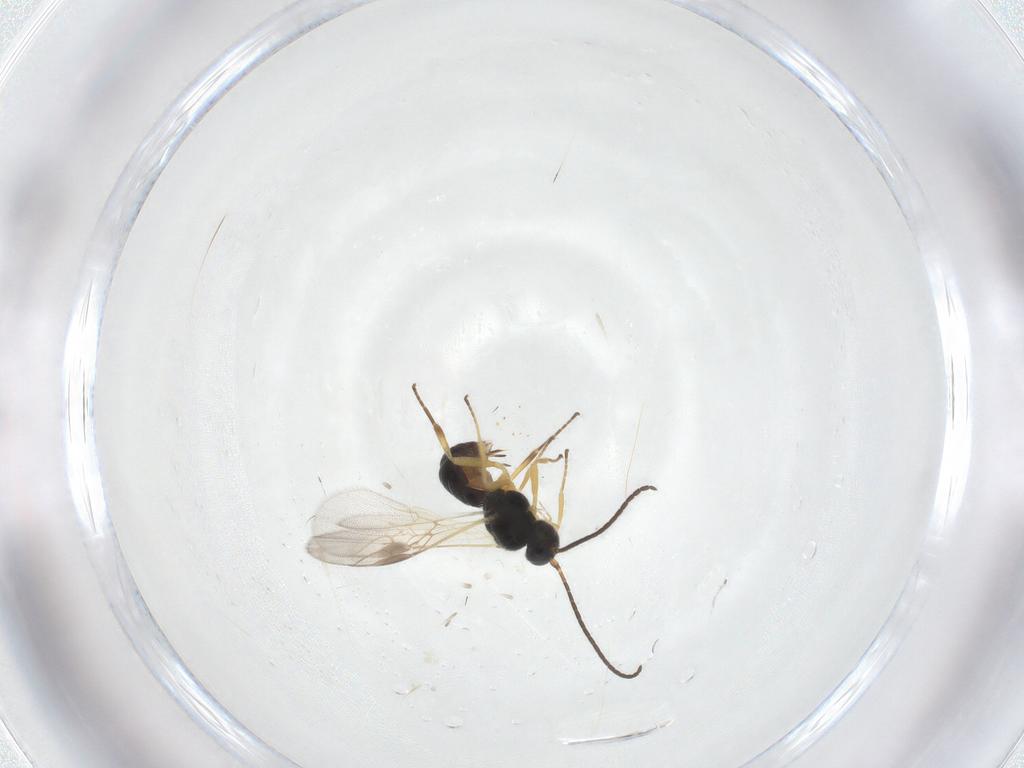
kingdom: Animalia
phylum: Arthropoda
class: Insecta
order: Hymenoptera
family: Braconidae
